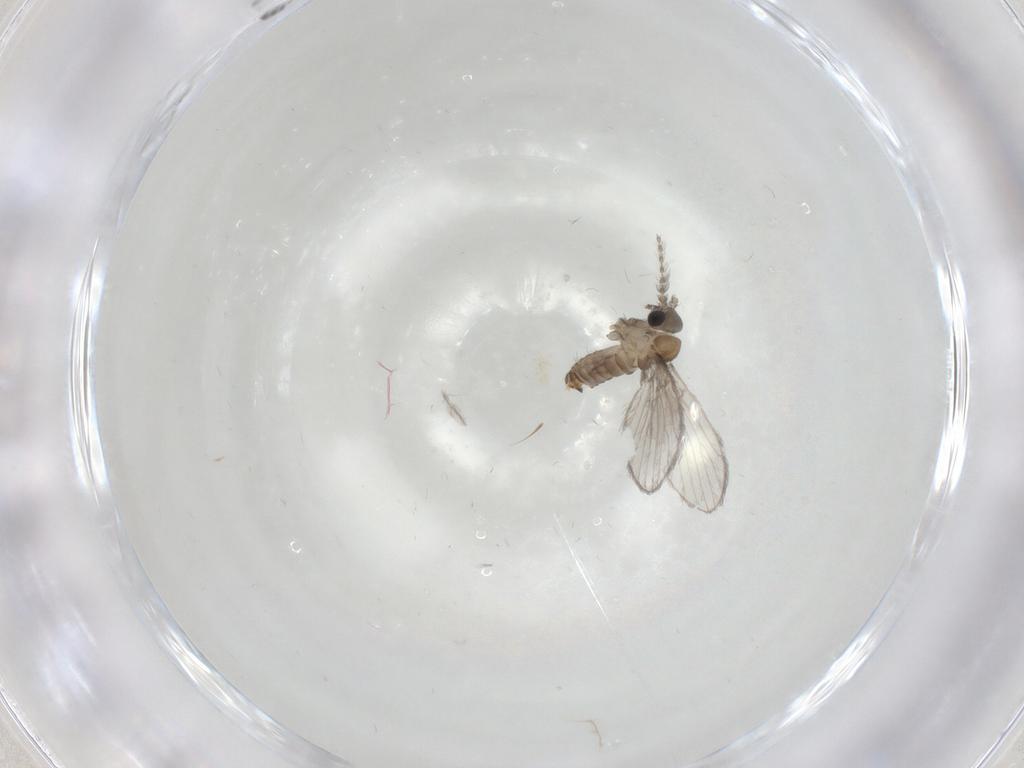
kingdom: Animalia
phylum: Arthropoda
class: Insecta
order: Diptera
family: Psychodidae
